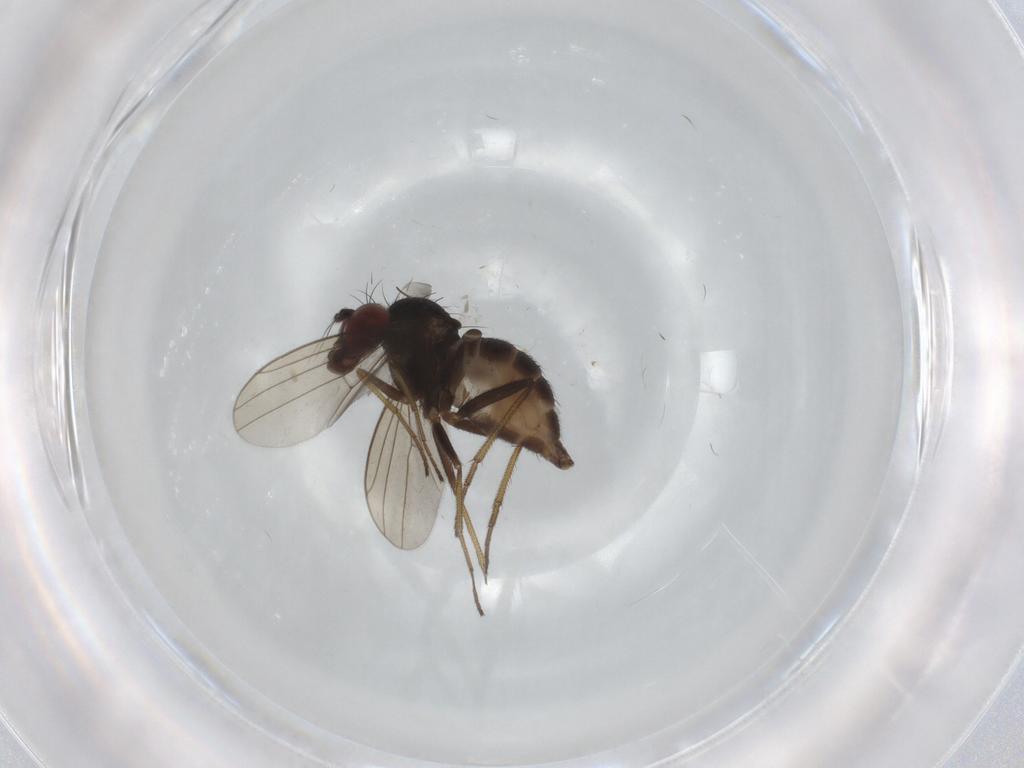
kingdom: Animalia
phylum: Arthropoda
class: Insecta
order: Diptera
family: Dolichopodidae
